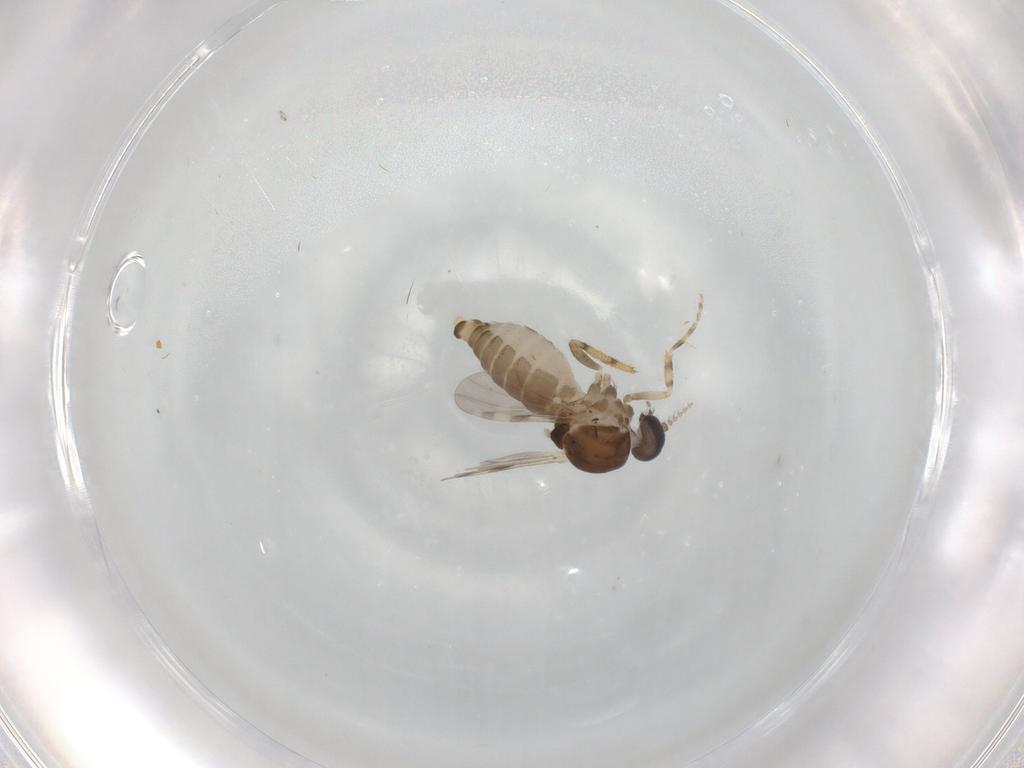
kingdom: Animalia
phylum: Arthropoda
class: Insecta
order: Diptera
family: Ceratopogonidae
